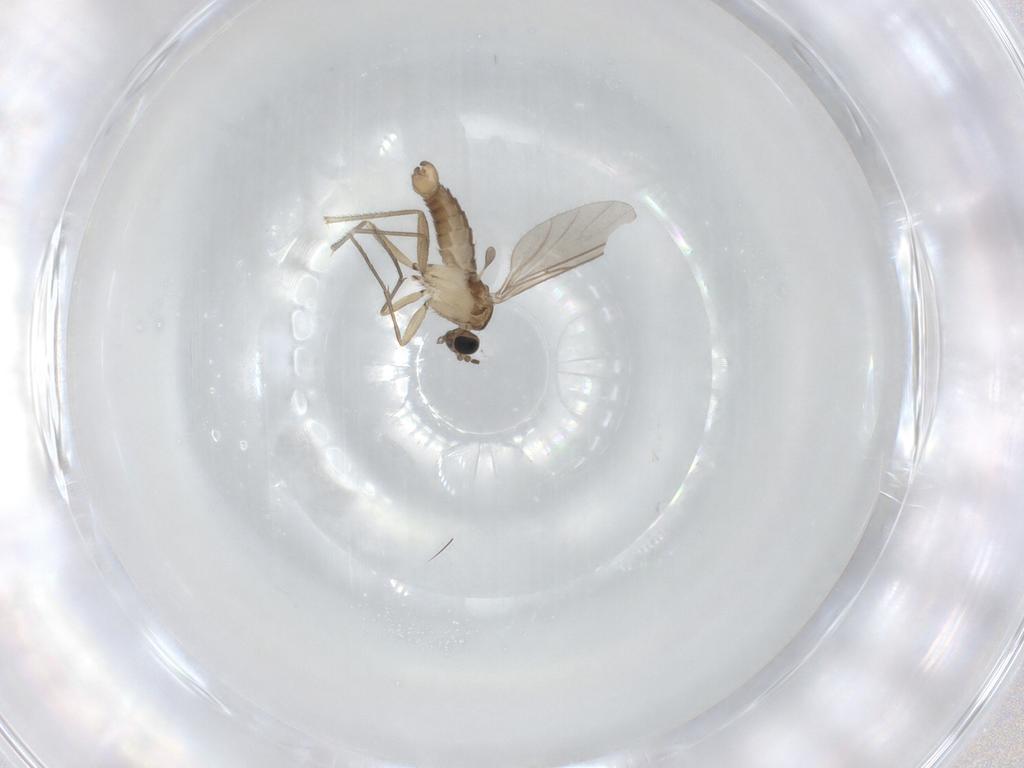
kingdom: Animalia
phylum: Arthropoda
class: Insecta
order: Diptera
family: Sciaridae
